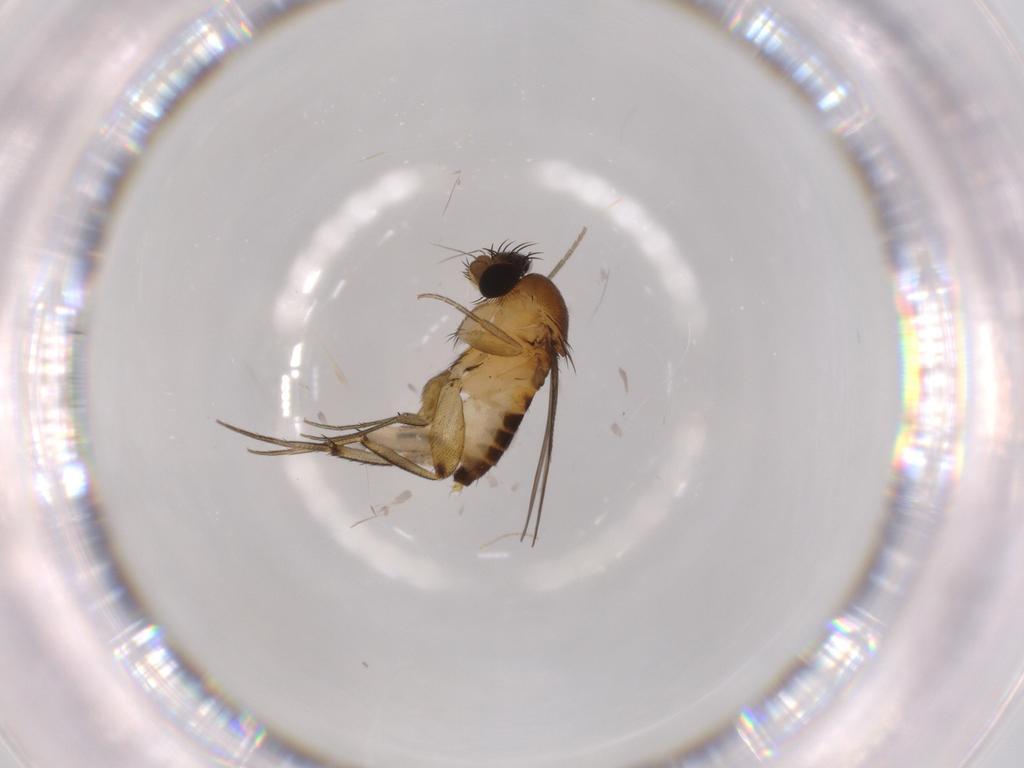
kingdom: Animalia
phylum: Arthropoda
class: Insecta
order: Diptera
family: Phoridae
